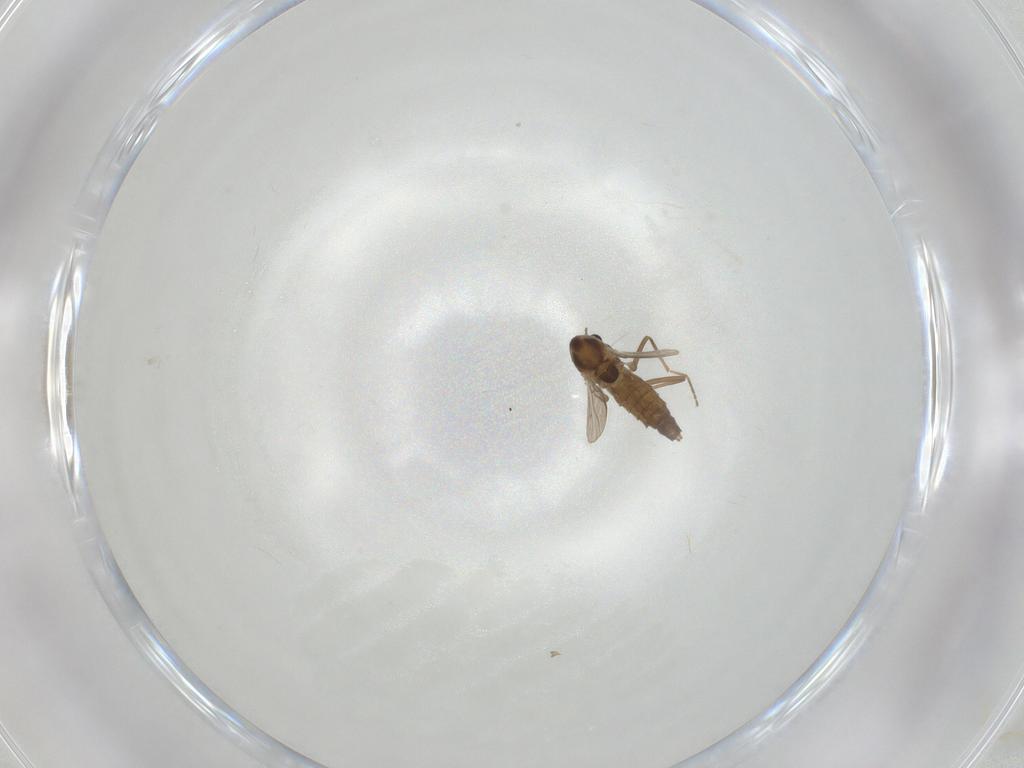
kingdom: Animalia
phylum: Arthropoda
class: Insecta
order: Diptera
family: Chironomidae
